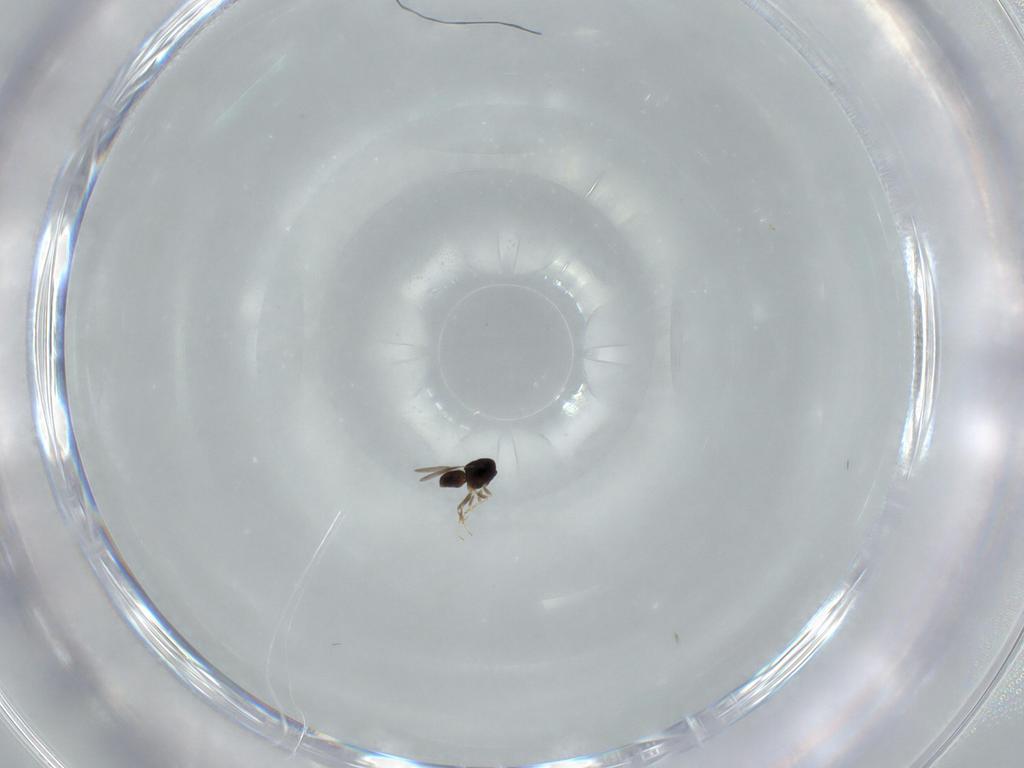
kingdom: Animalia
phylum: Arthropoda
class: Insecta
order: Hymenoptera
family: Ceraphronidae
